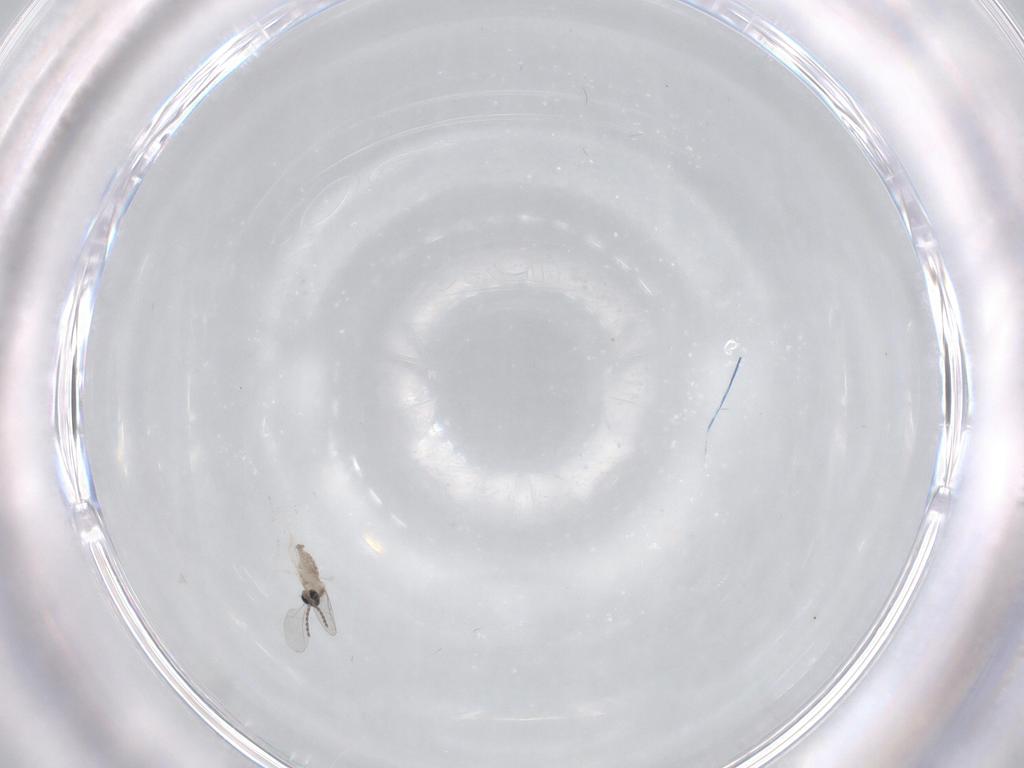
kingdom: Animalia
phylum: Arthropoda
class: Insecta
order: Diptera
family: Cecidomyiidae
